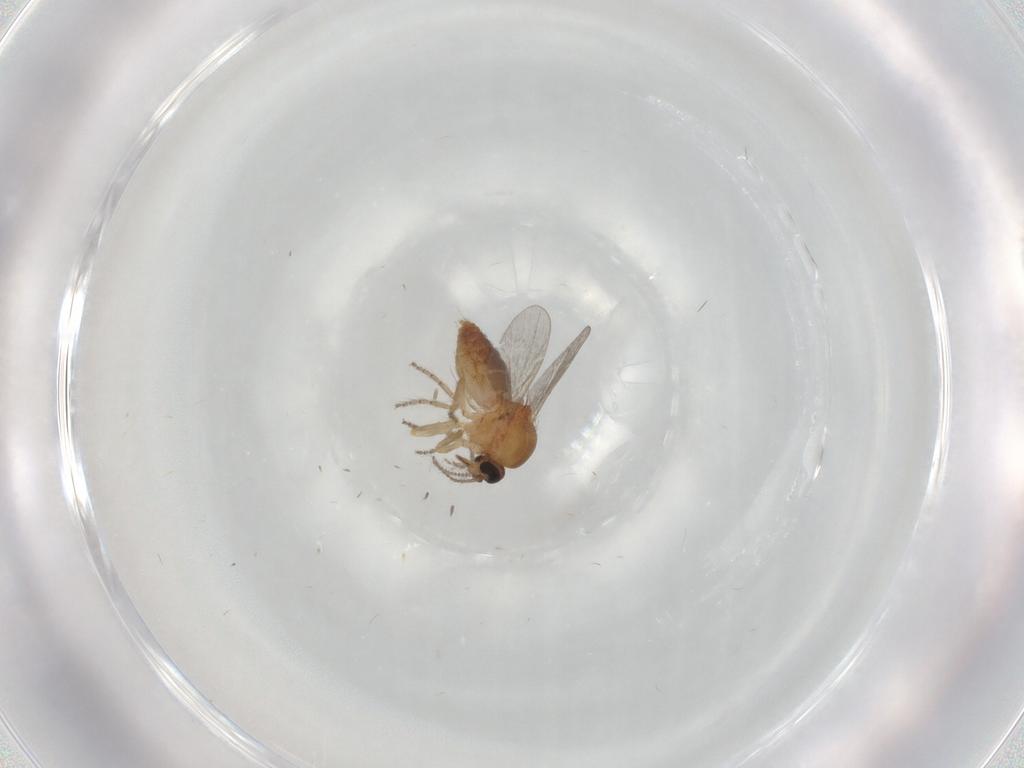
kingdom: Animalia
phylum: Arthropoda
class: Insecta
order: Diptera
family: Ceratopogonidae
